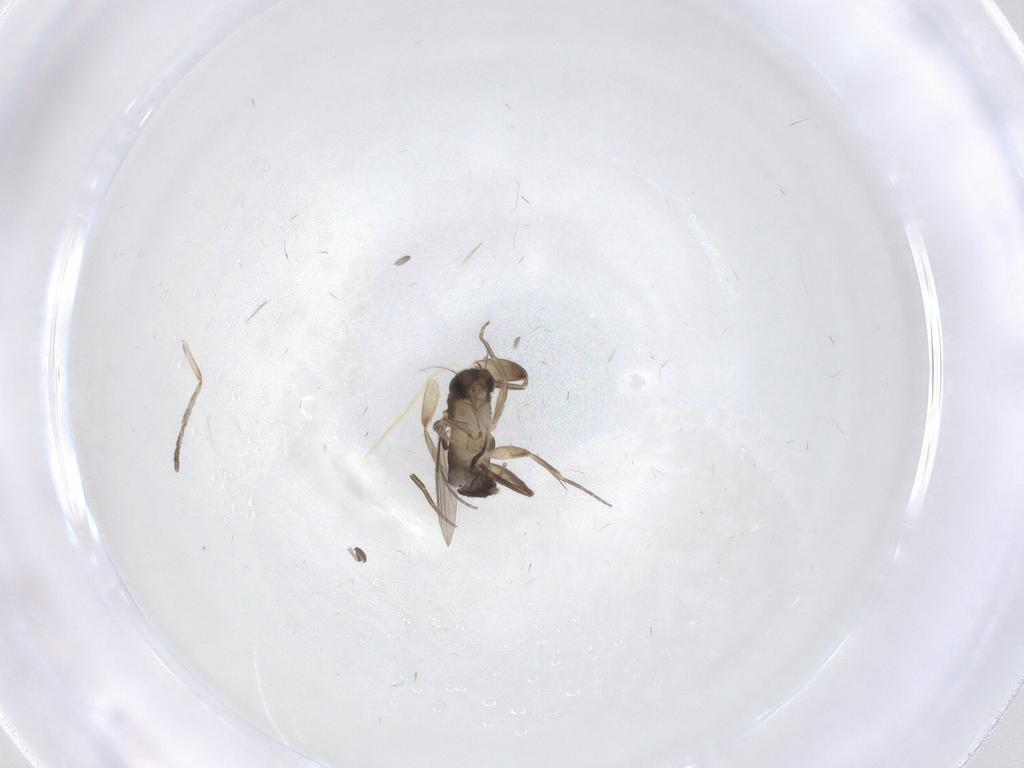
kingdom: Animalia
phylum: Arthropoda
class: Insecta
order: Diptera
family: Phoridae
